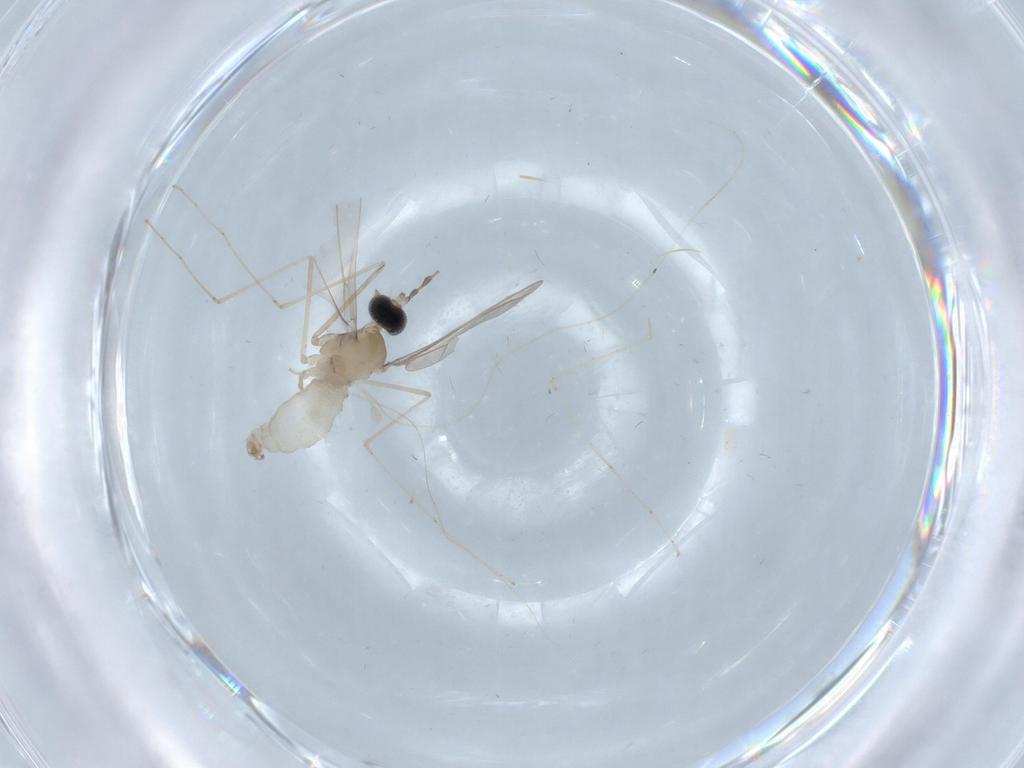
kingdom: Animalia
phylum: Arthropoda
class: Insecta
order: Diptera
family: Cecidomyiidae
